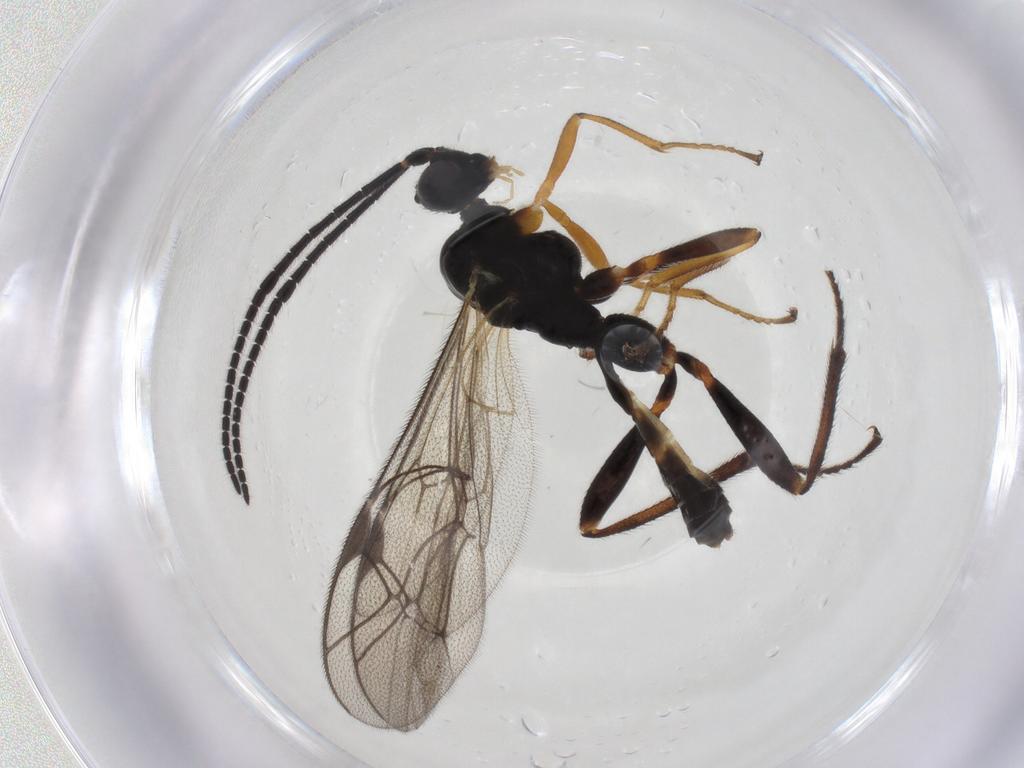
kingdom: Animalia
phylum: Arthropoda
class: Insecta
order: Hymenoptera
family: Ichneumonidae
